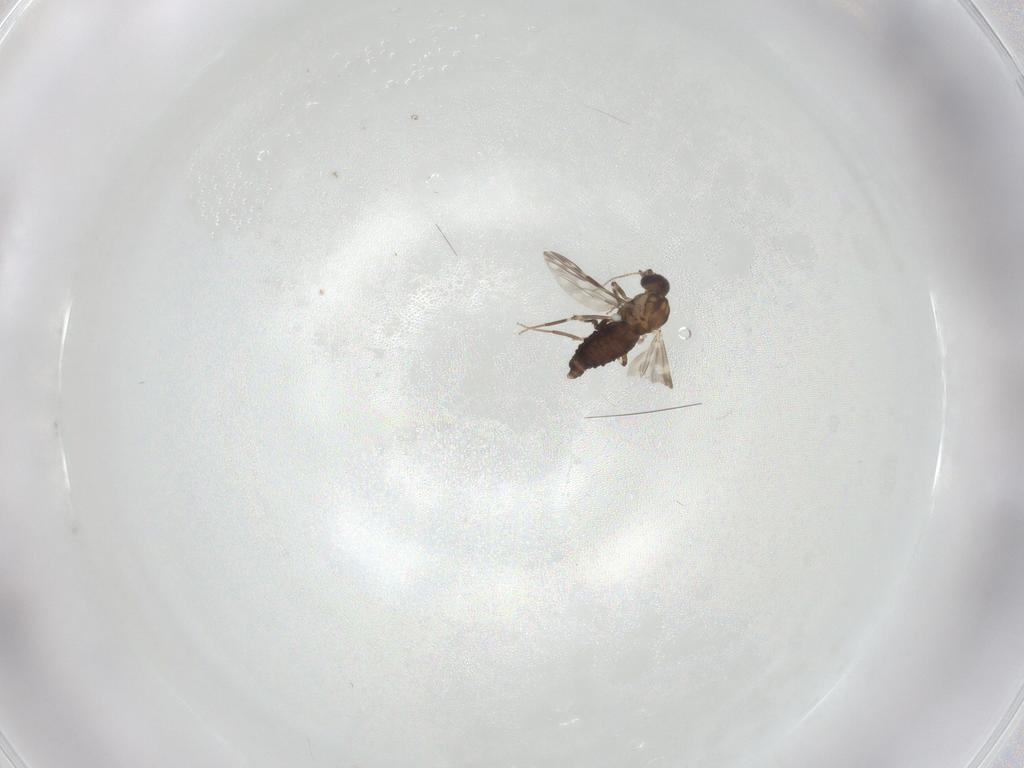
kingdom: Animalia
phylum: Arthropoda
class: Insecta
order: Diptera
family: Ceratopogonidae
